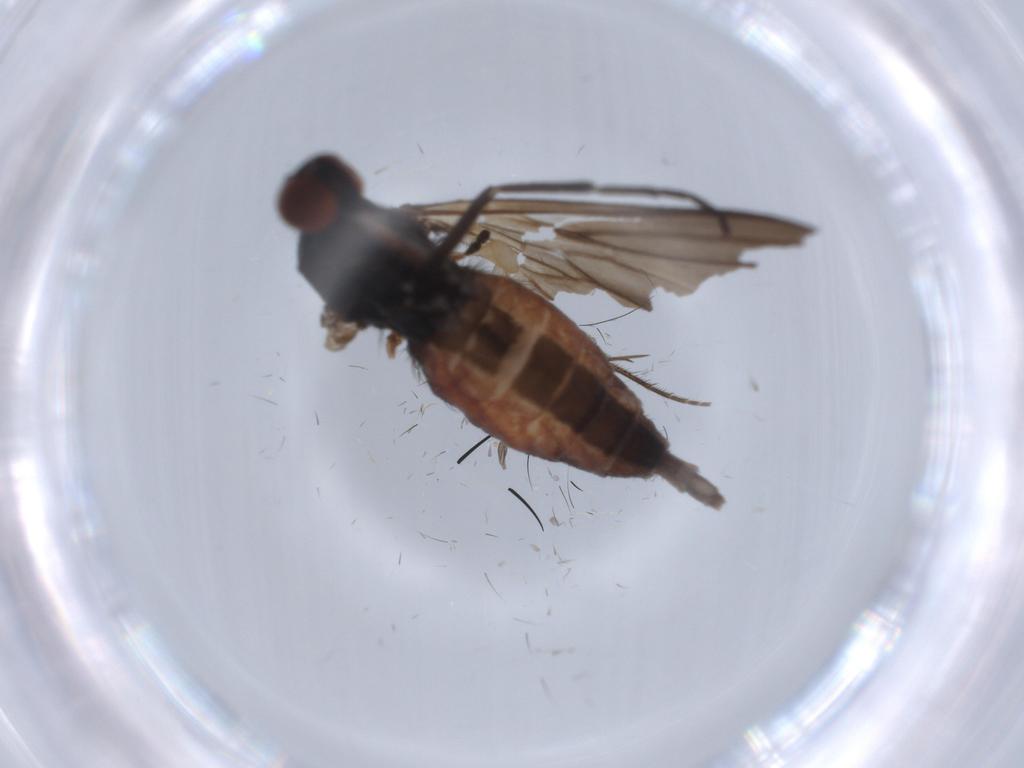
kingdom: Animalia
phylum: Arthropoda
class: Insecta
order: Diptera
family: Empididae
